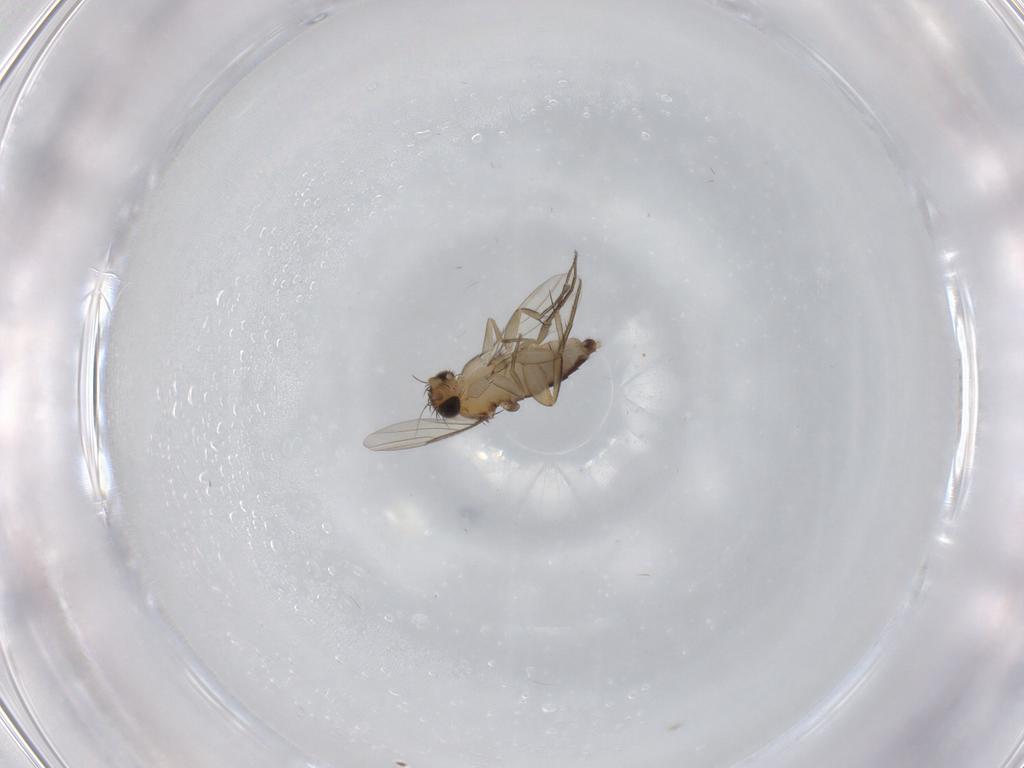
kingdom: Animalia
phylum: Arthropoda
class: Insecta
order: Diptera
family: Phoridae
